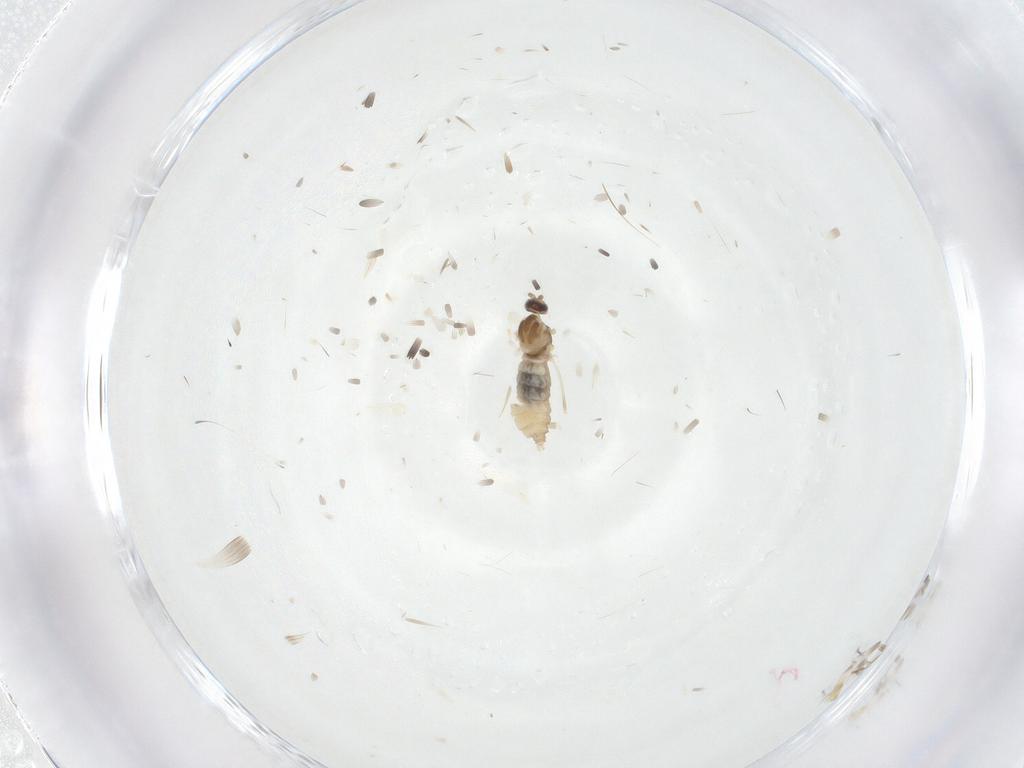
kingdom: Animalia
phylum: Arthropoda
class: Insecta
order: Diptera
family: Cecidomyiidae
